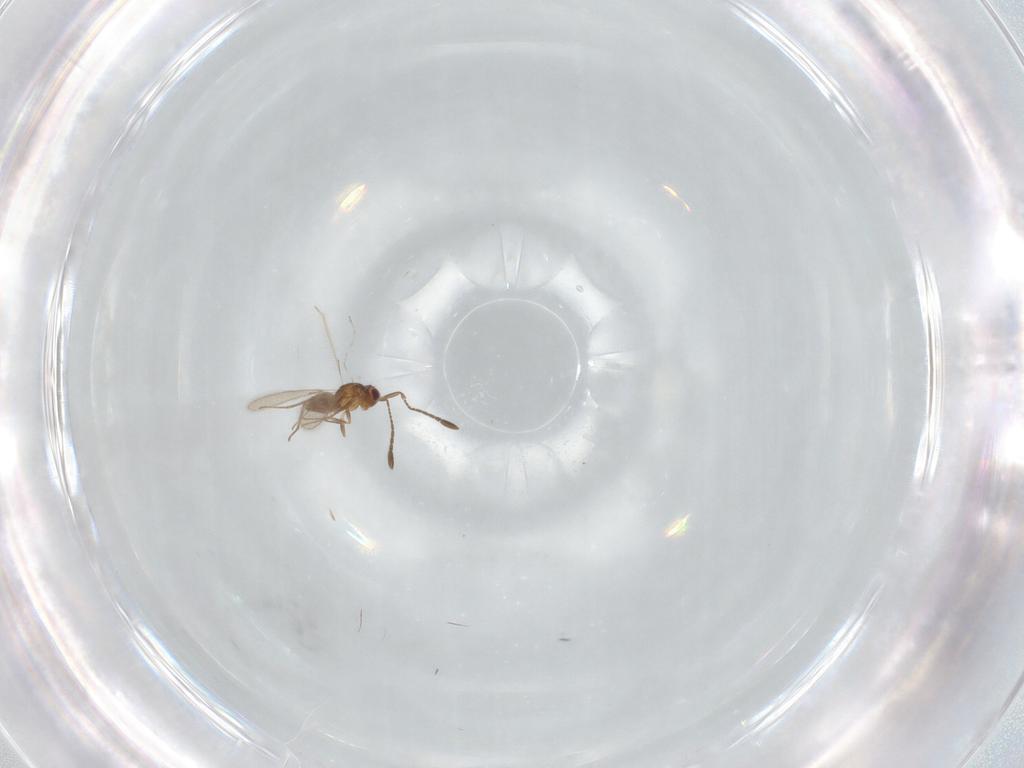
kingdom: Animalia
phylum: Arthropoda
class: Insecta
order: Hymenoptera
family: Mymaridae
